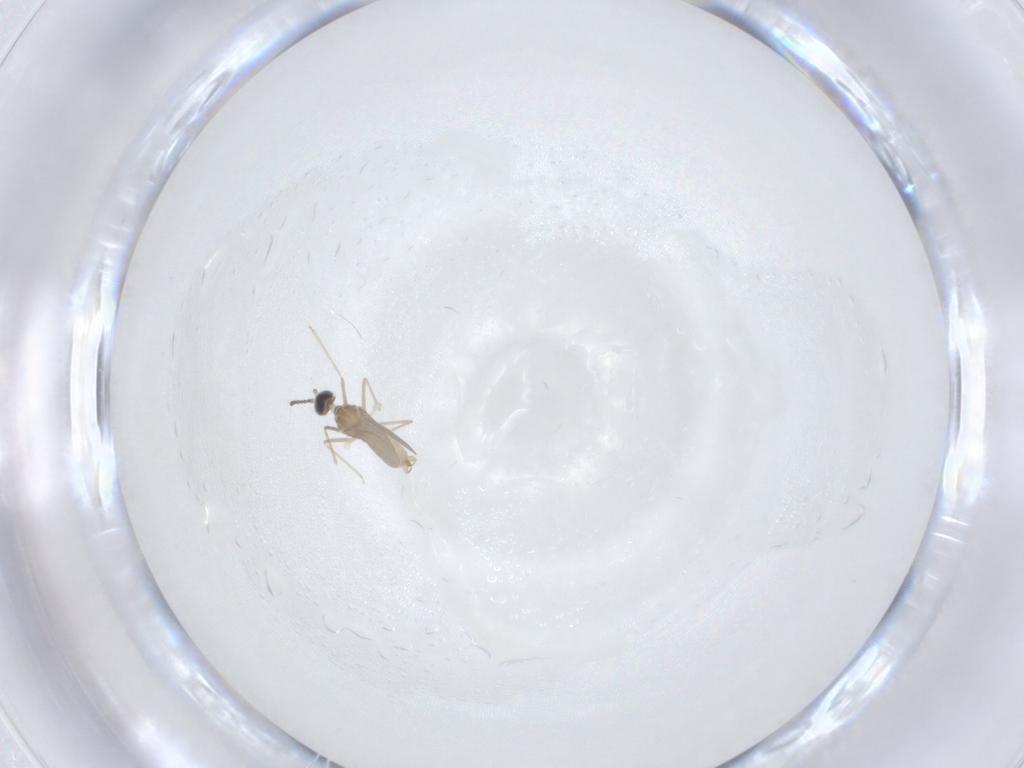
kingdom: Animalia
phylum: Arthropoda
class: Insecta
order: Diptera
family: Cecidomyiidae
